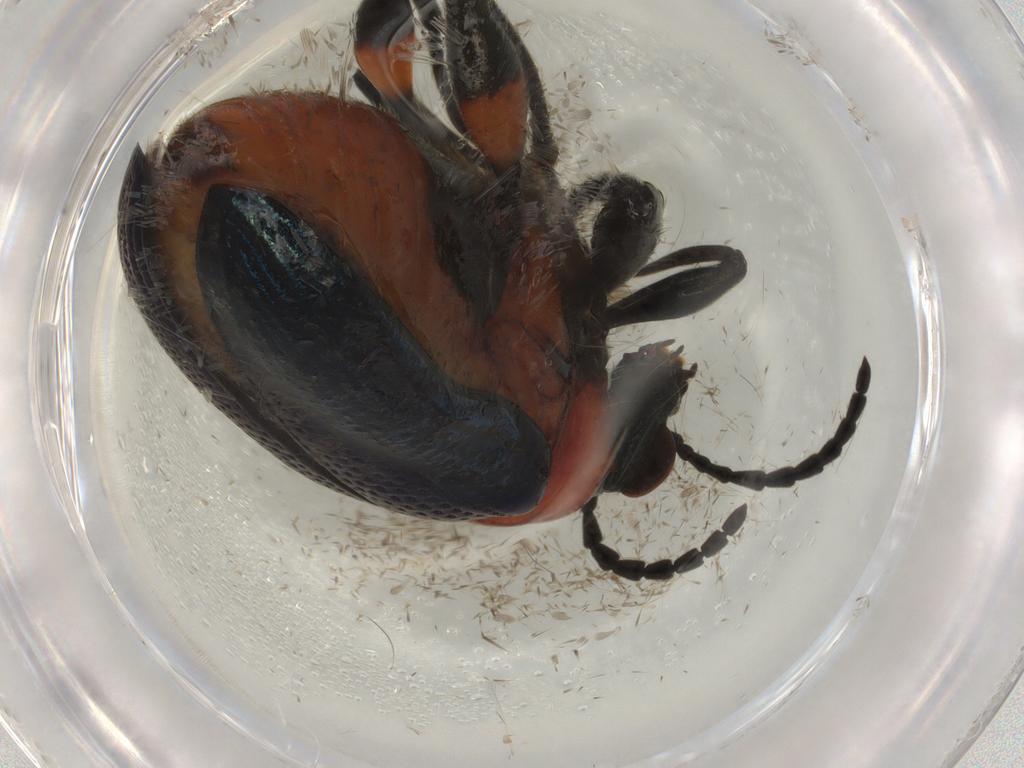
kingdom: Animalia
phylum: Arthropoda
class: Insecta
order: Coleoptera
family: Chrysomelidae
